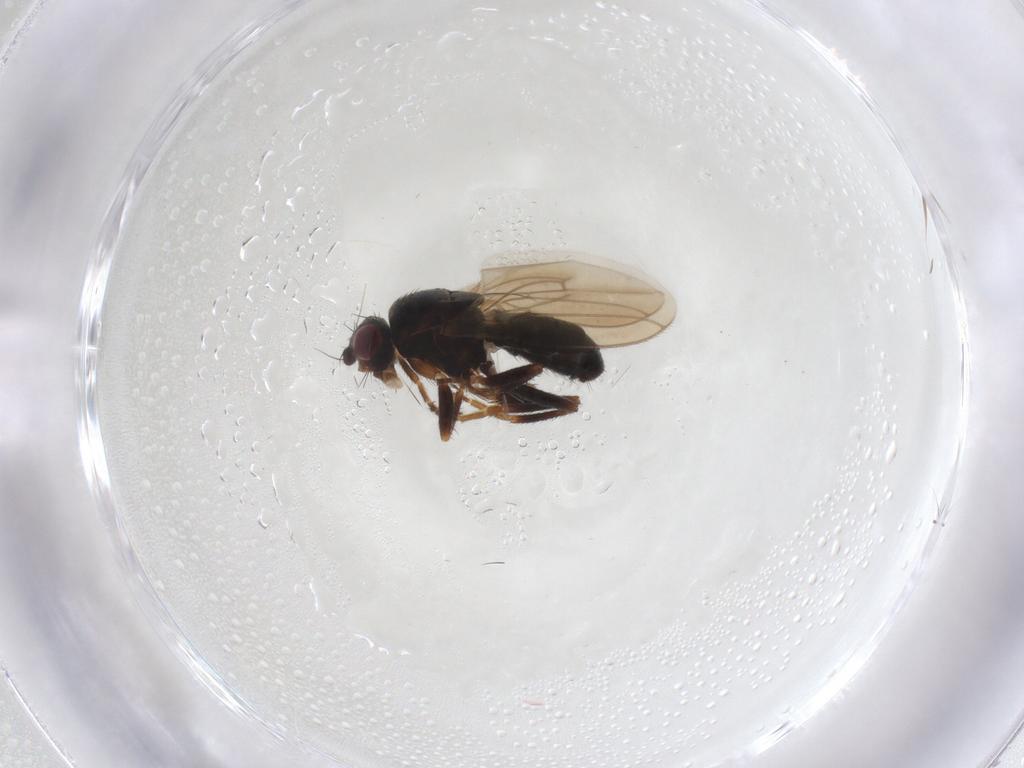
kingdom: Animalia
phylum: Arthropoda
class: Insecta
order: Diptera
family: Sphaeroceridae
